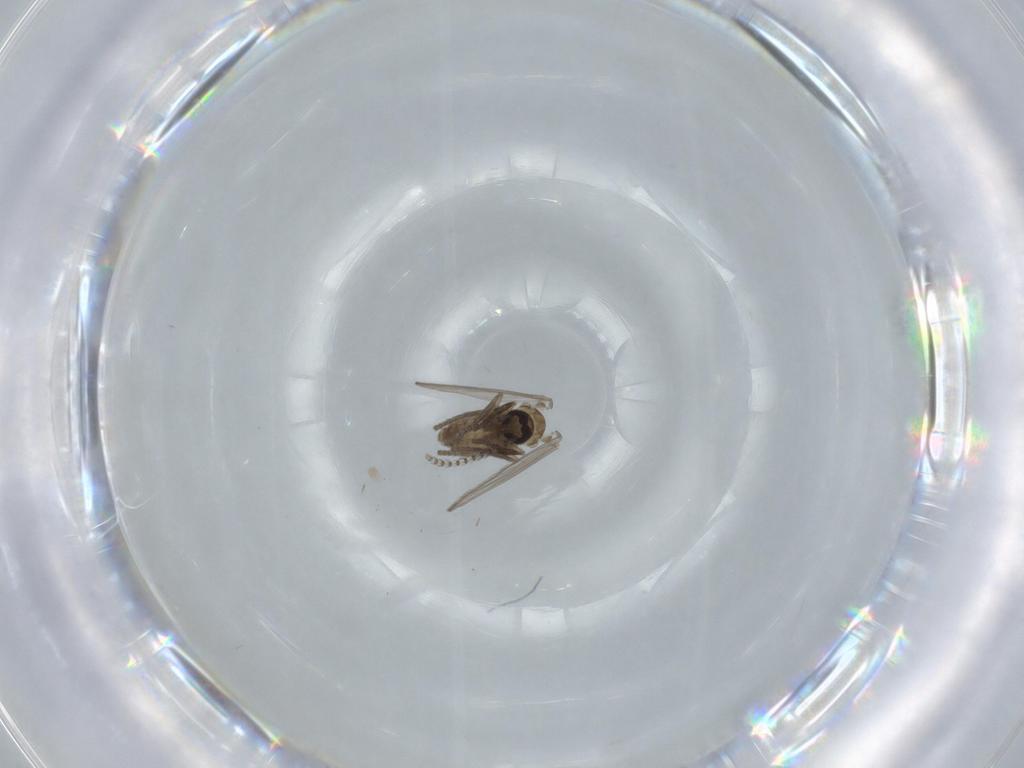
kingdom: Animalia
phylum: Arthropoda
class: Insecta
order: Diptera
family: Psychodidae
